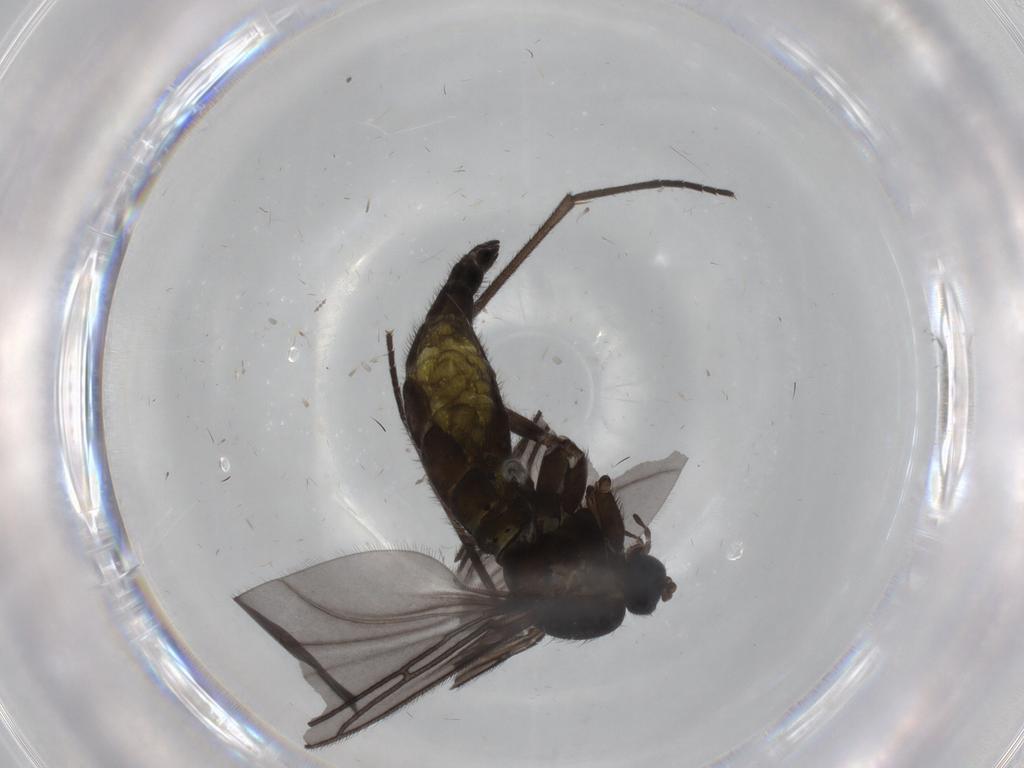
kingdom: Animalia
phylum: Arthropoda
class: Insecta
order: Diptera
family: Sciaridae
